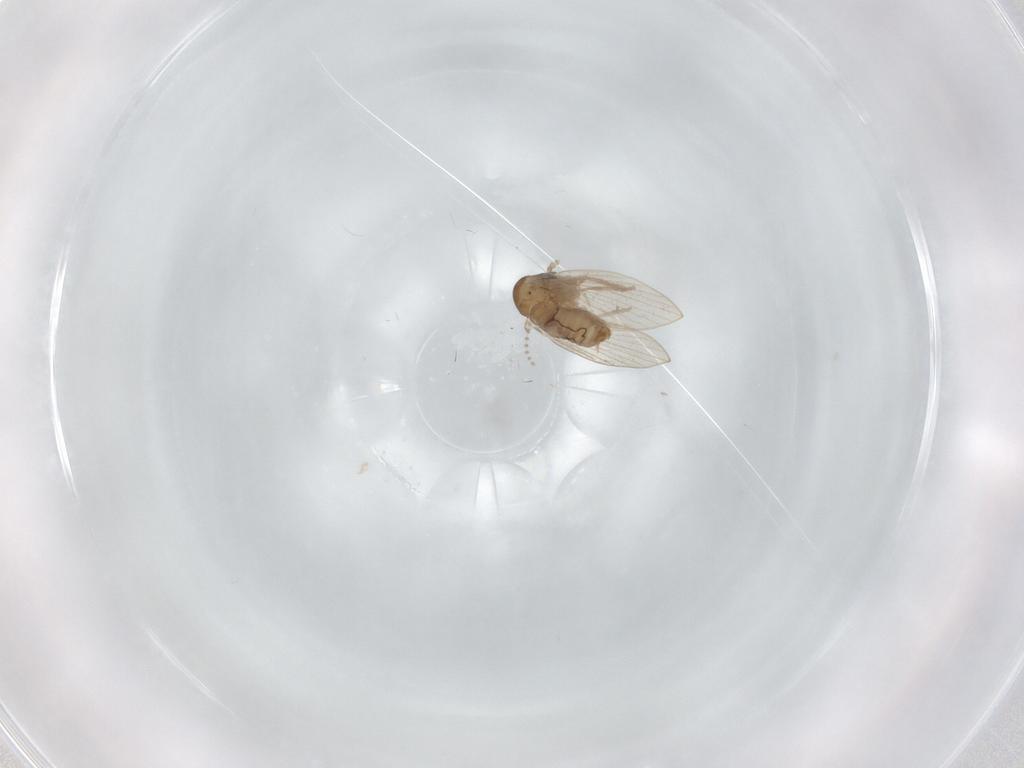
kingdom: Animalia
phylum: Arthropoda
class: Insecta
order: Diptera
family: Psychodidae
